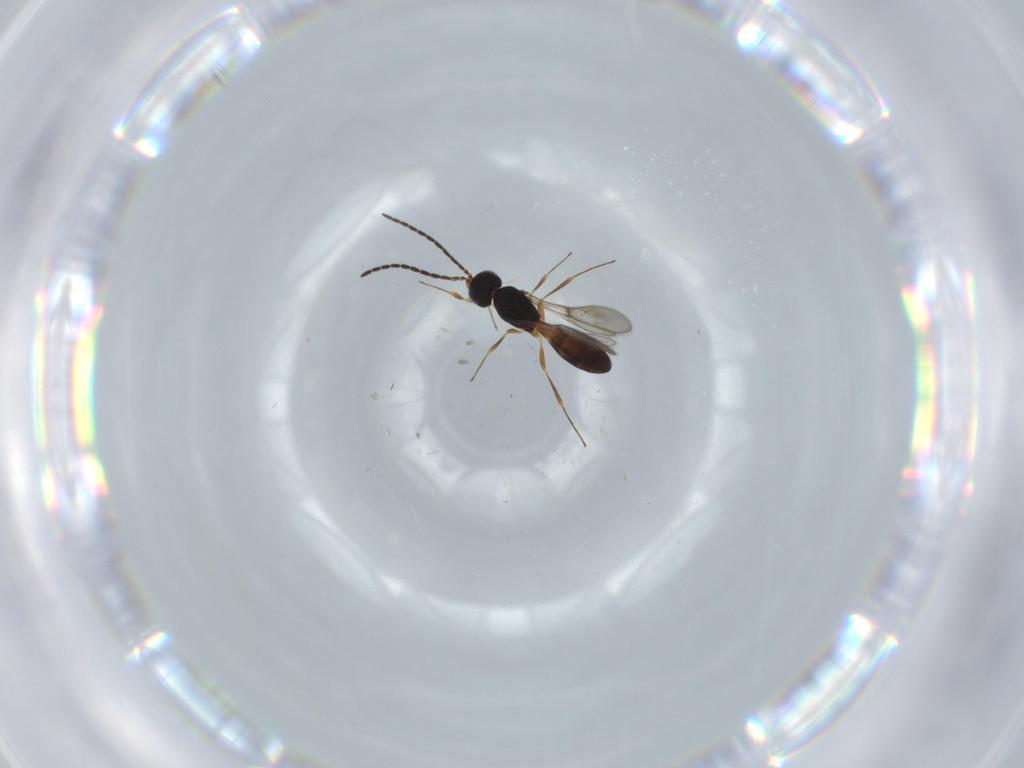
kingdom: Animalia
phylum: Arthropoda
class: Insecta
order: Hymenoptera
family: Scelionidae
